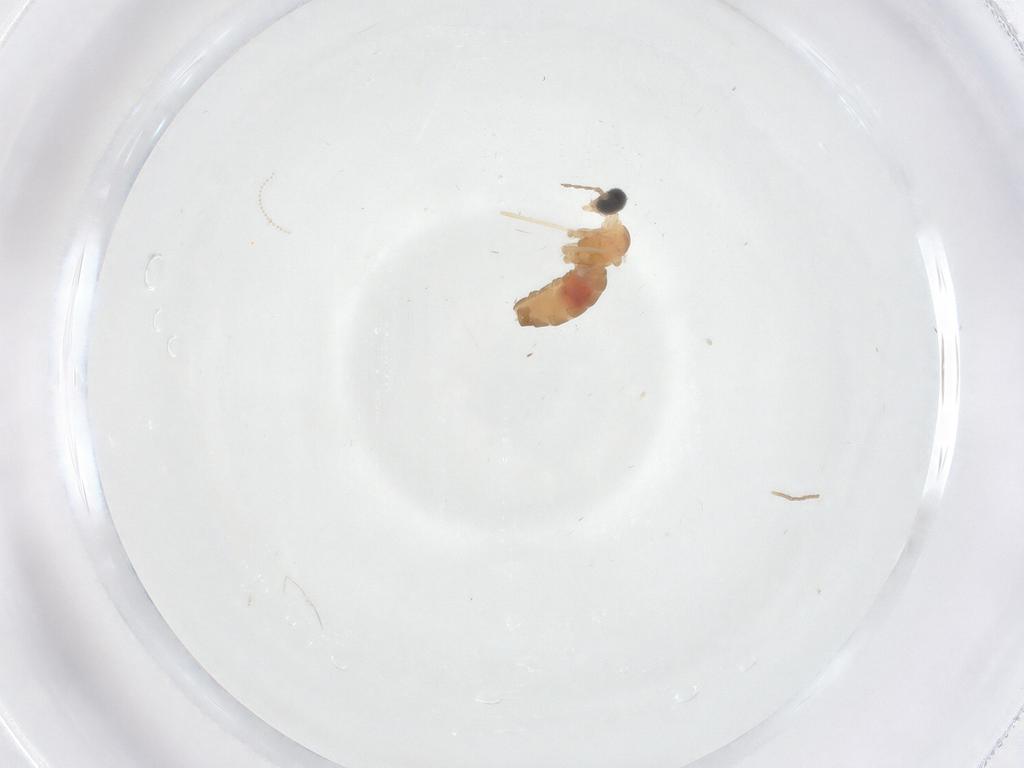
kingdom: Animalia
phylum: Arthropoda
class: Insecta
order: Diptera
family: Cecidomyiidae
